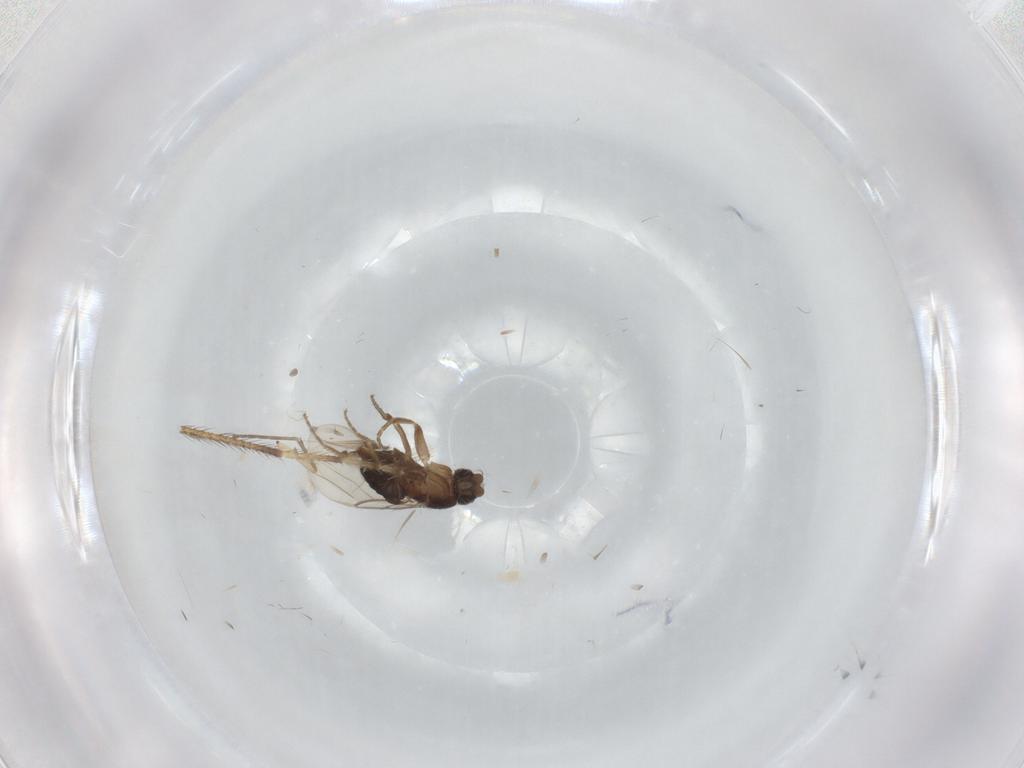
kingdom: Animalia
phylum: Arthropoda
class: Insecta
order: Diptera
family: Phoridae
